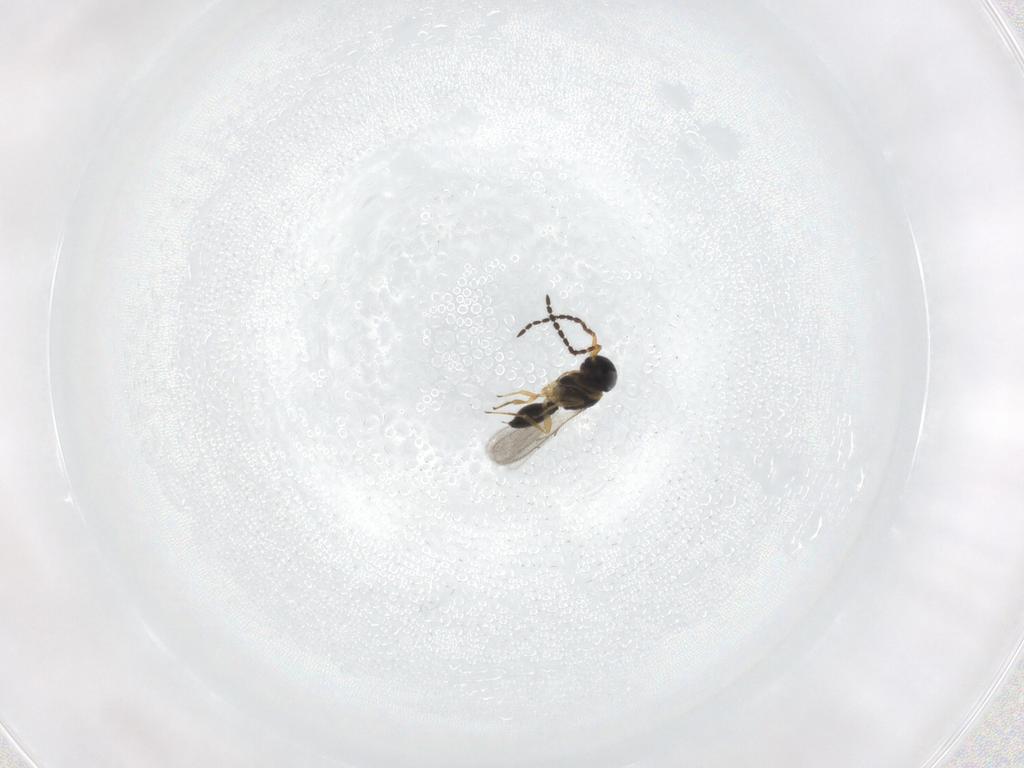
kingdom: Animalia
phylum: Arthropoda
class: Insecta
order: Hymenoptera
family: Scelionidae
